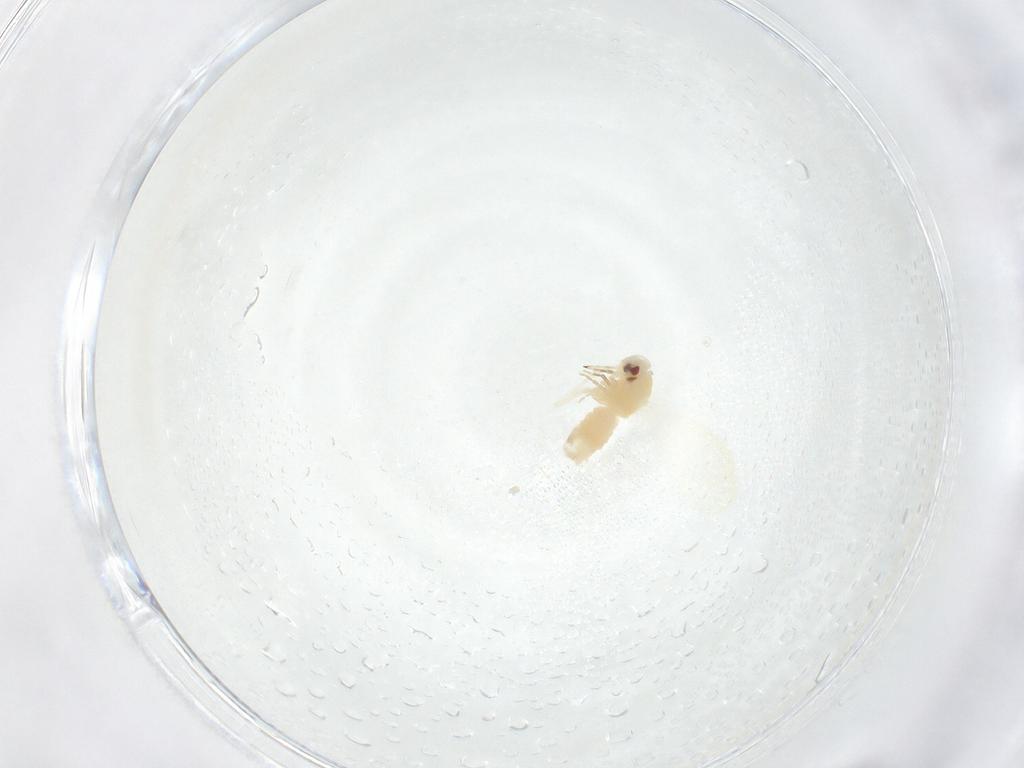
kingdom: Animalia
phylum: Arthropoda
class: Insecta
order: Hemiptera
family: Aleyrodidae
